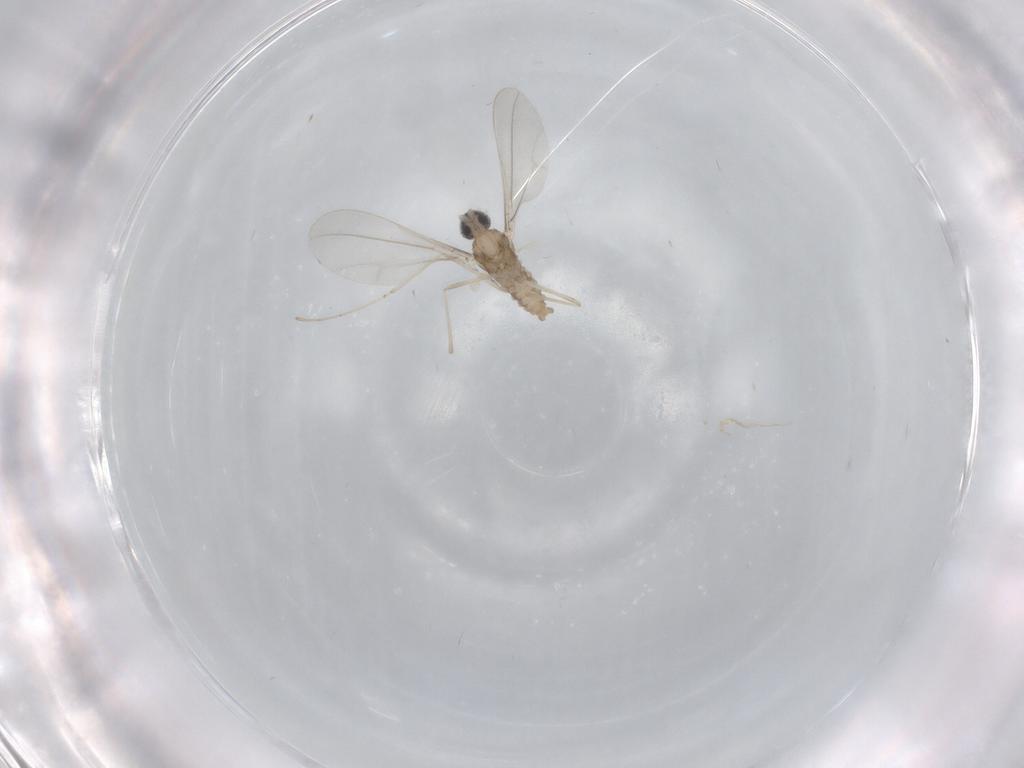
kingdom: Animalia
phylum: Arthropoda
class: Insecta
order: Diptera
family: Cecidomyiidae
